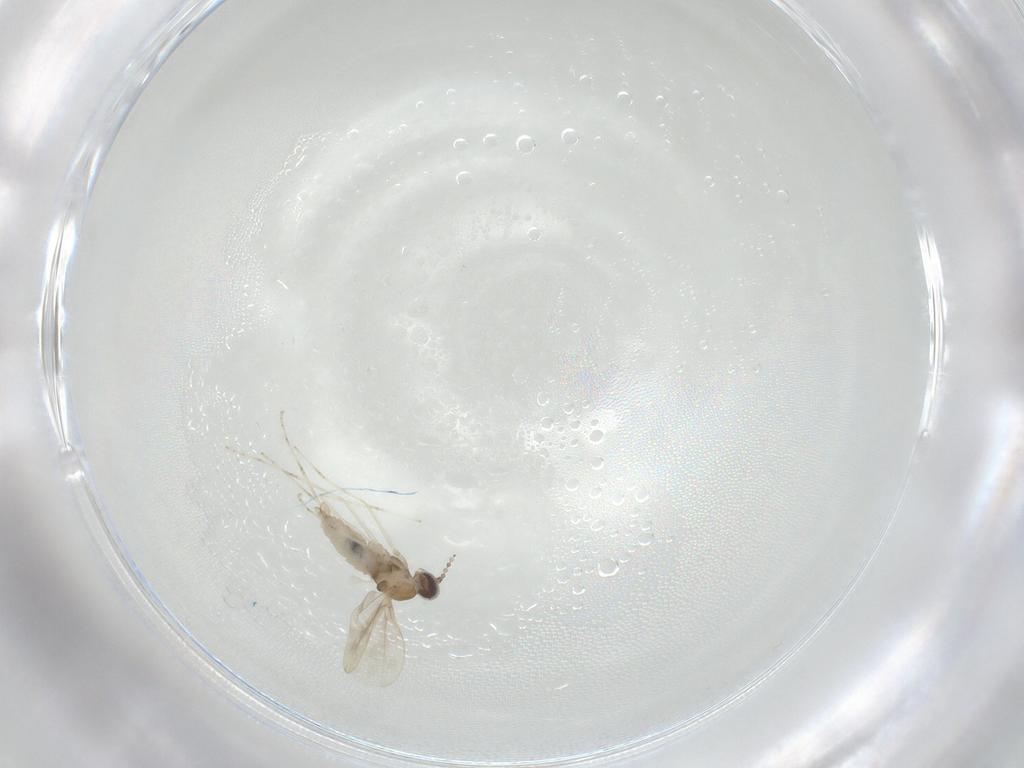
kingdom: Animalia
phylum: Arthropoda
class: Insecta
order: Diptera
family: Cecidomyiidae
